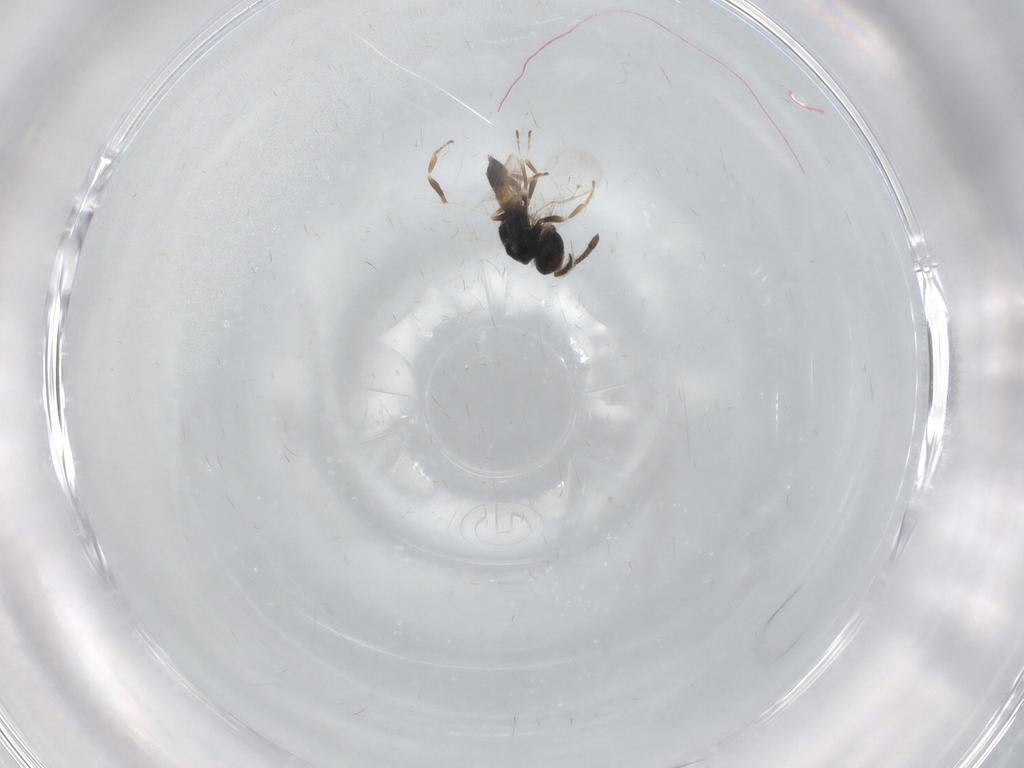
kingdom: Animalia
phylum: Arthropoda
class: Insecta
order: Hymenoptera
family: Pteromalidae
